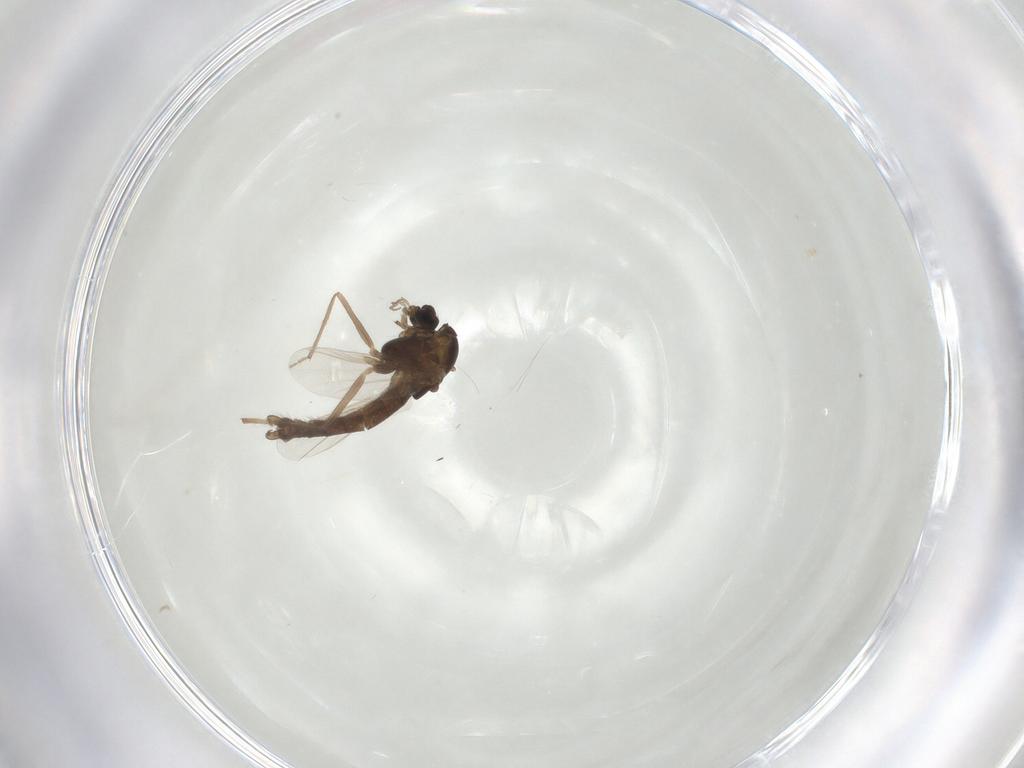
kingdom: Animalia
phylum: Arthropoda
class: Insecta
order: Diptera
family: Chironomidae
